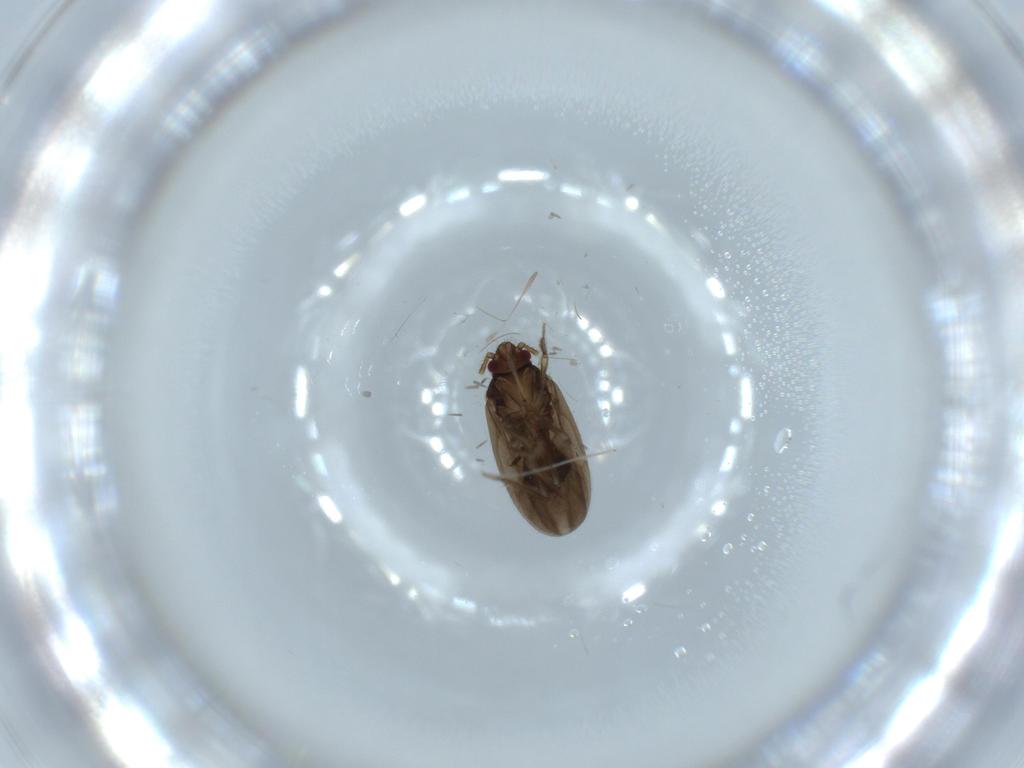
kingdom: Animalia
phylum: Arthropoda
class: Insecta
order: Hemiptera
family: Ceratocombidae
